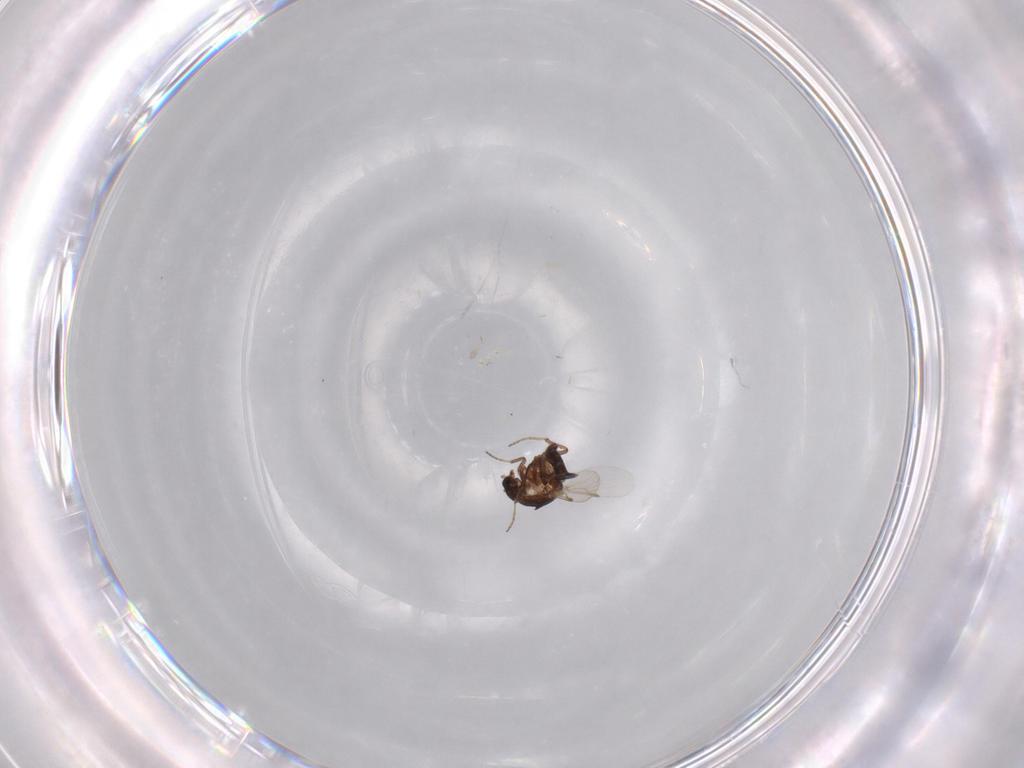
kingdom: Animalia
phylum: Arthropoda
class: Insecta
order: Diptera
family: Ceratopogonidae
